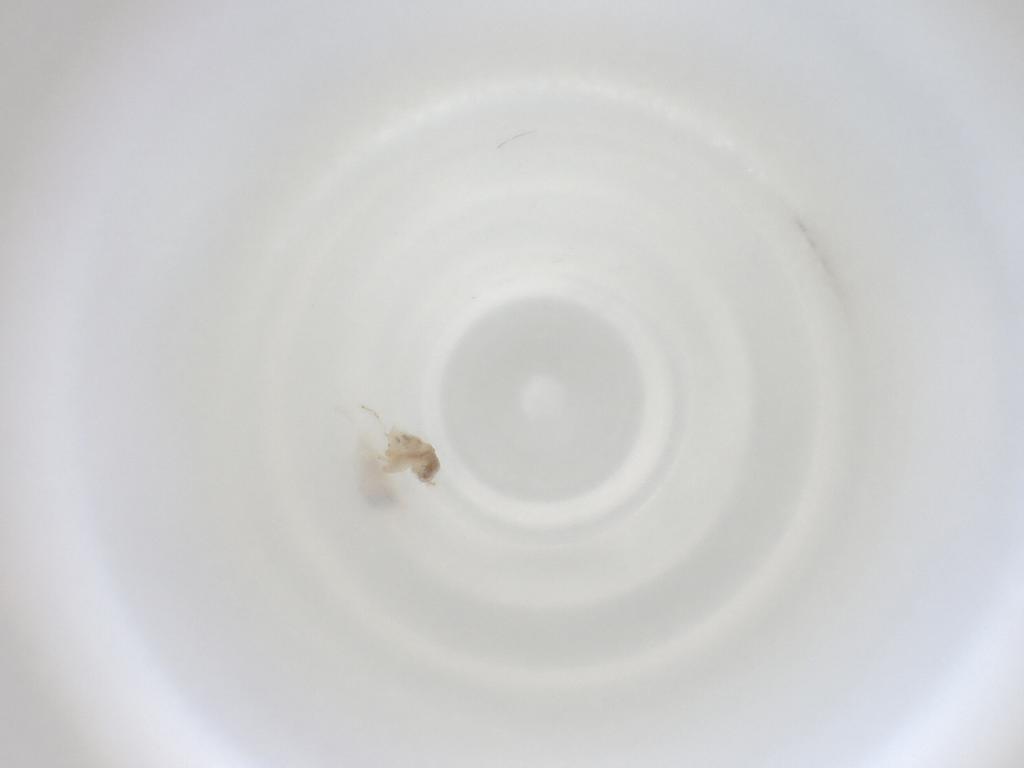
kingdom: Animalia
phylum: Arthropoda
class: Insecta
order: Diptera
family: Cecidomyiidae
